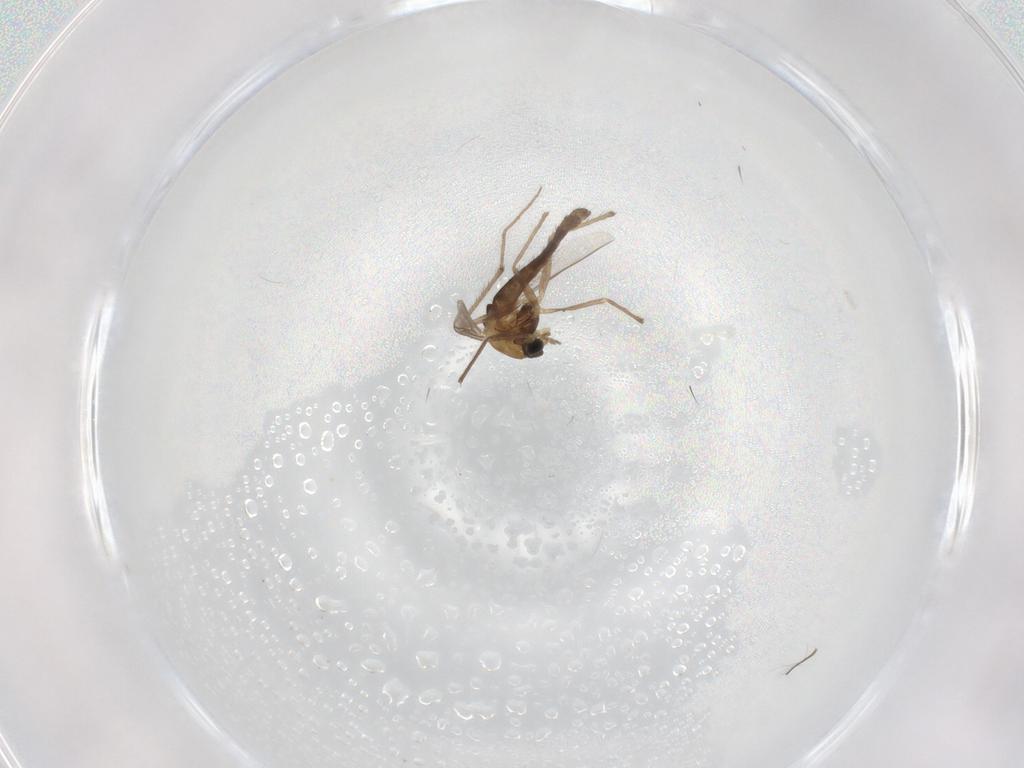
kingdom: Animalia
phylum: Arthropoda
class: Insecta
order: Diptera
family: Chironomidae
